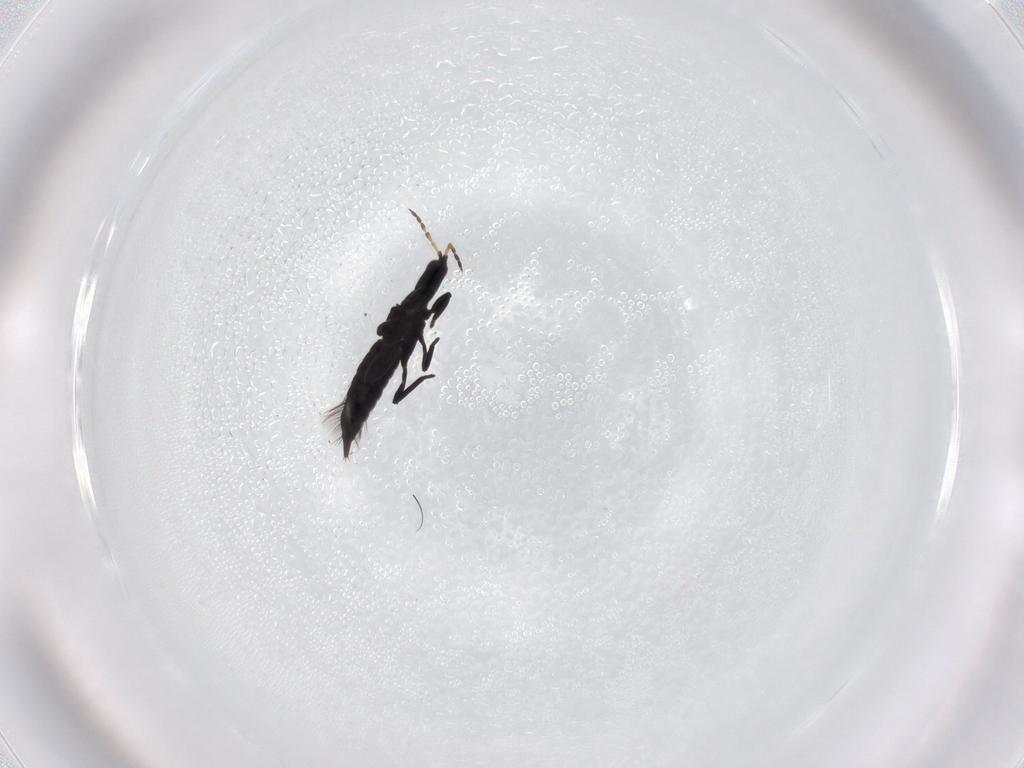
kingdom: Animalia
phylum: Arthropoda
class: Insecta
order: Thysanoptera
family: Phlaeothripidae
